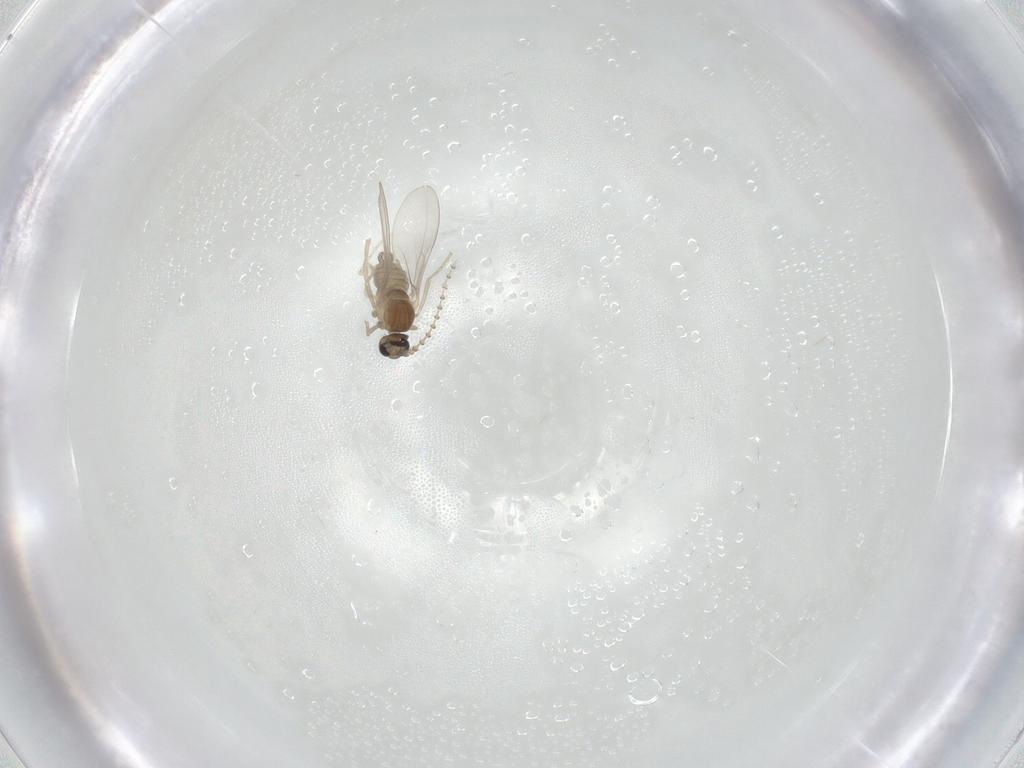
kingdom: Animalia
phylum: Arthropoda
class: Insecta
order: Diptera
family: Cecidomyiidae
